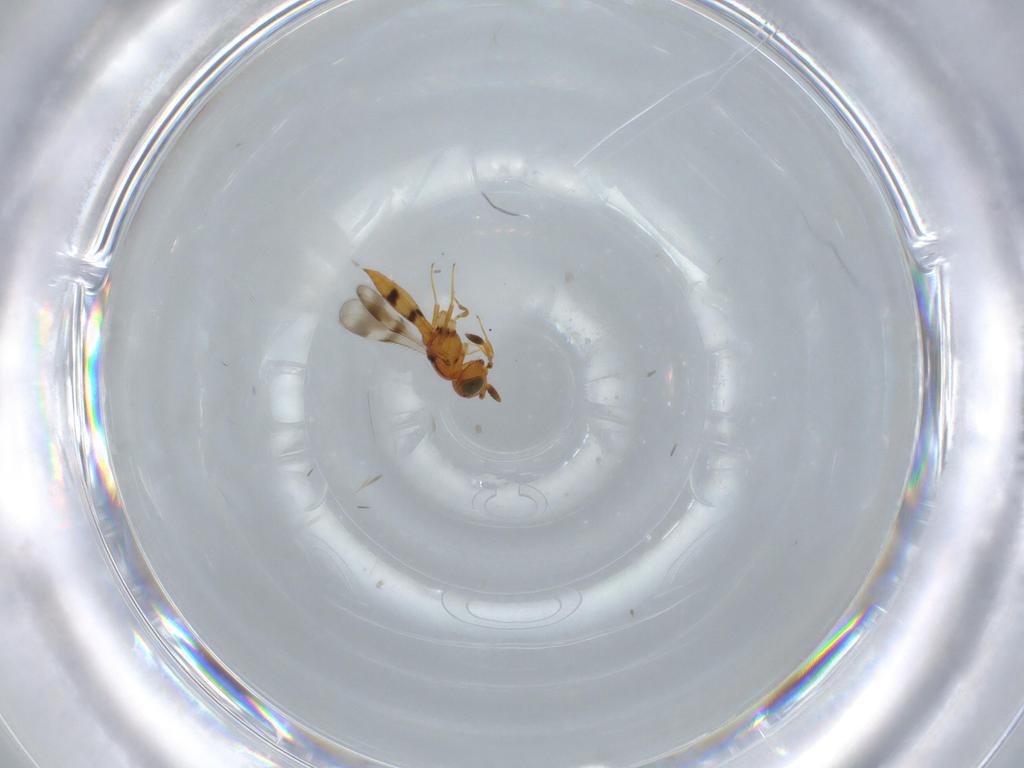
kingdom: Animalia
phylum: Arthropoda
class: Insecta
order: Hymenoptera
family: Scelionidae
